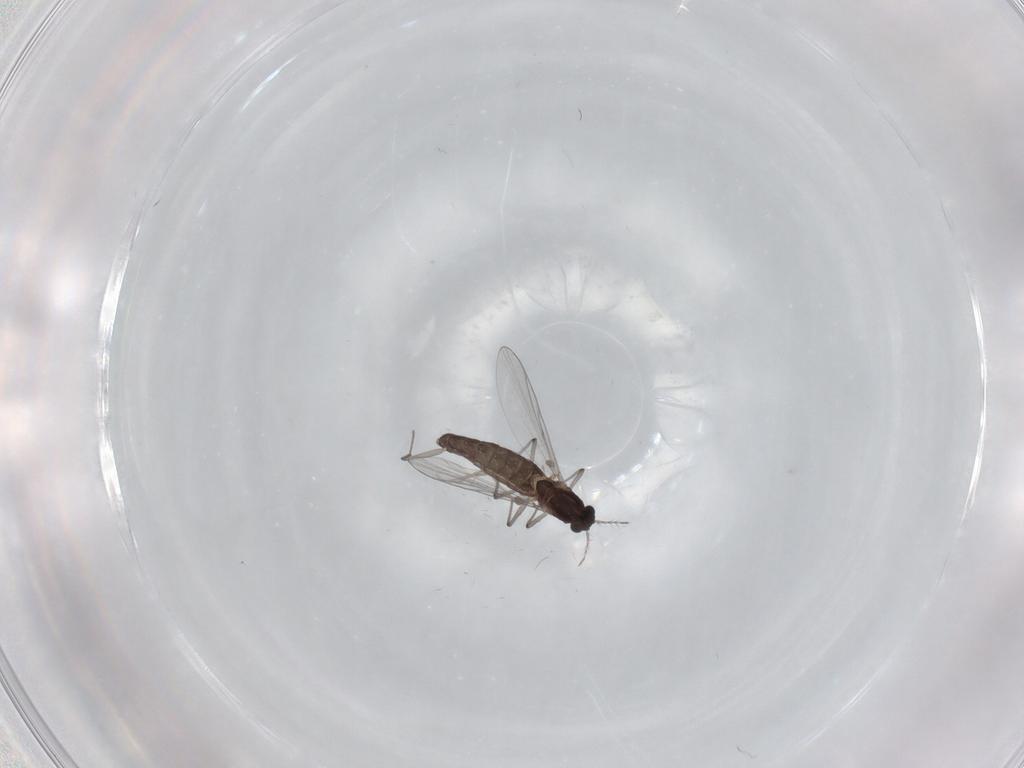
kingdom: Animalia
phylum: Arthropoda
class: Insecta
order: Diptera
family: Chironomidae
